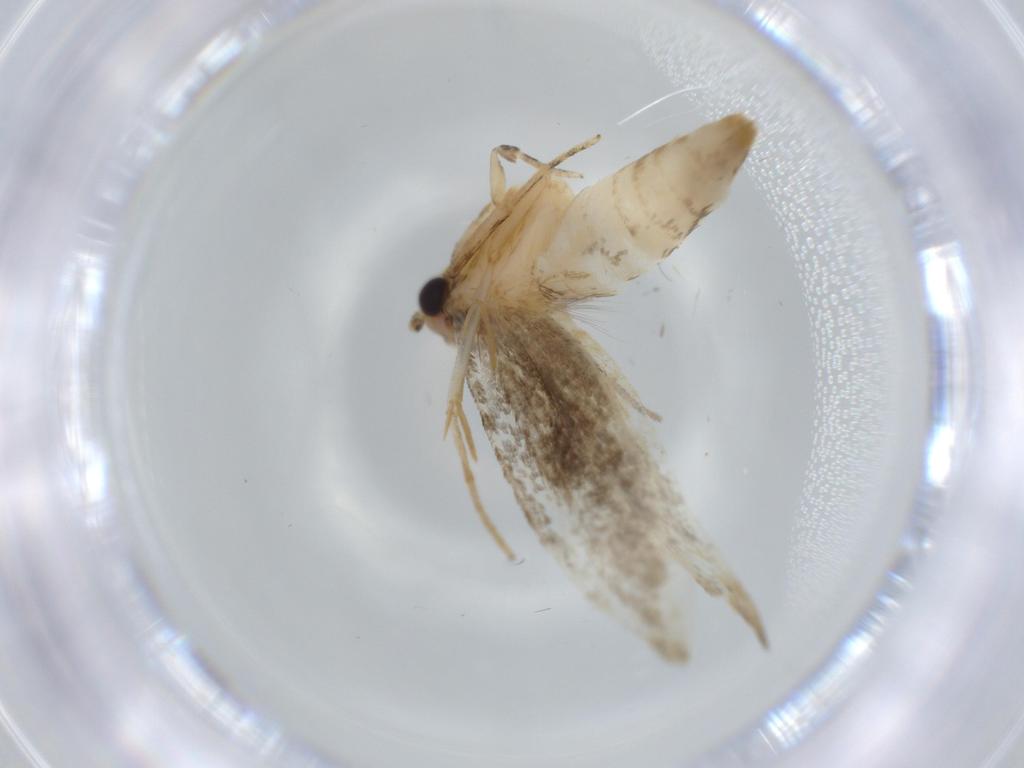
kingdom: Animalia
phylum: Arthropoda
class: Insecta
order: Lepidoptera
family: Tineidae
